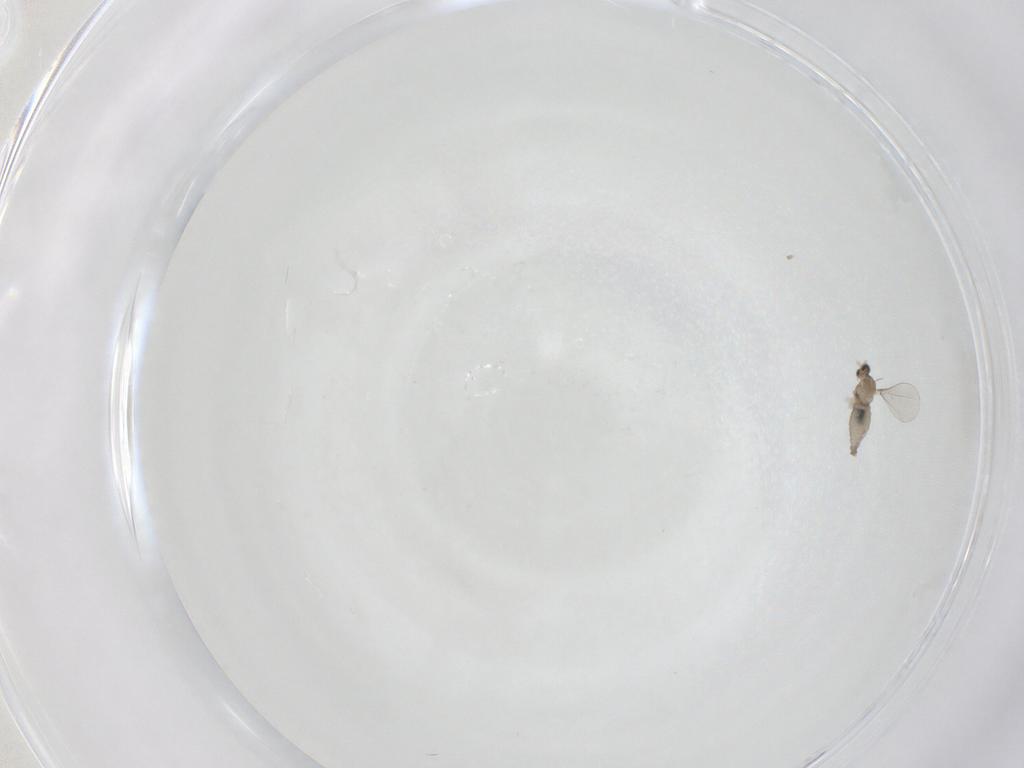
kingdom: Animalia
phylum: Arthropoda
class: Insecta
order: Diptera
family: Cecidomyiidae
